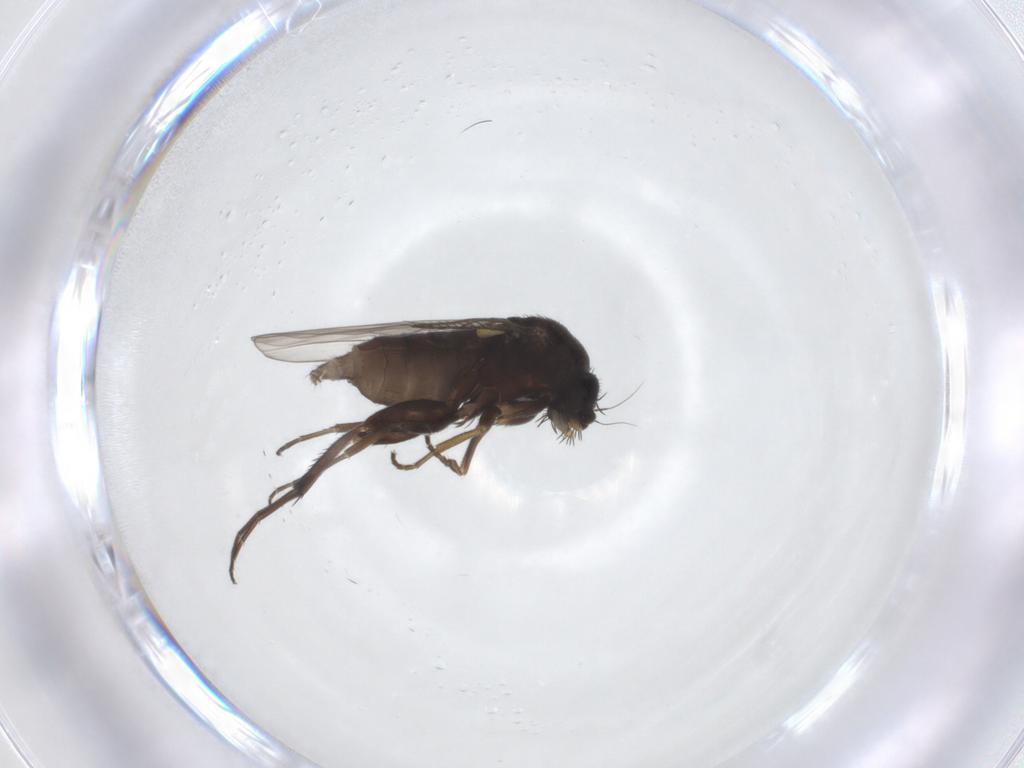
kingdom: Animalia
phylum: Arthropoda
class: Insecta
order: Diptera
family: Phoridae
